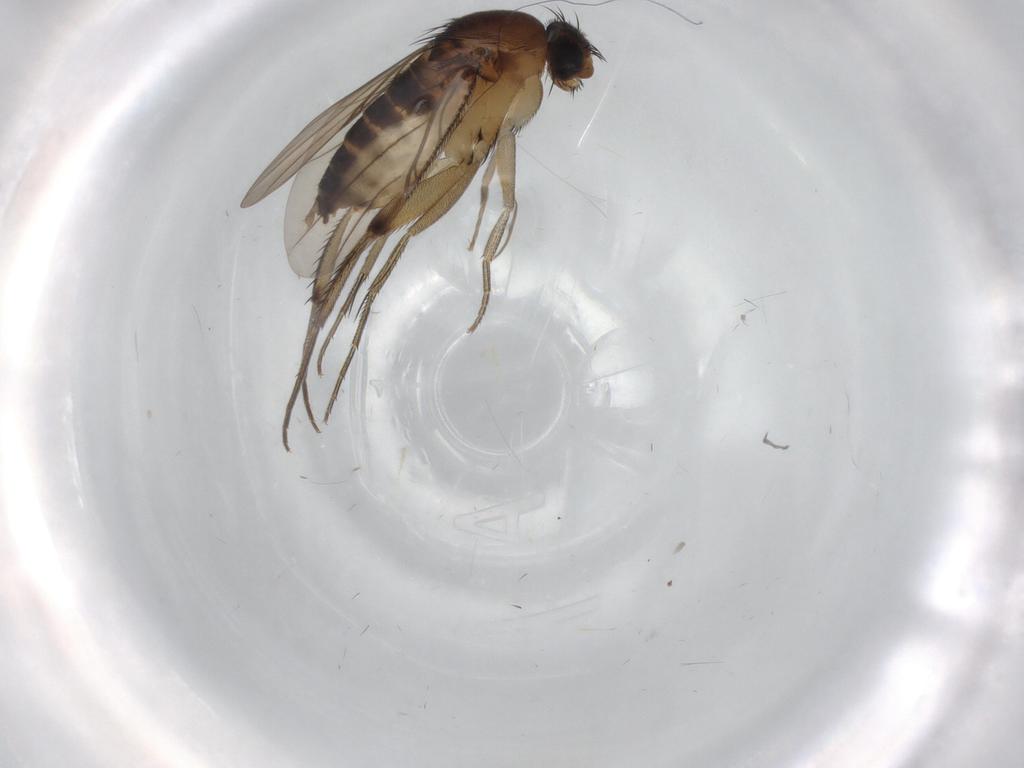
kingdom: Animalia
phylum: Arthropoda
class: Insecta
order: Diptera
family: Phoridae
